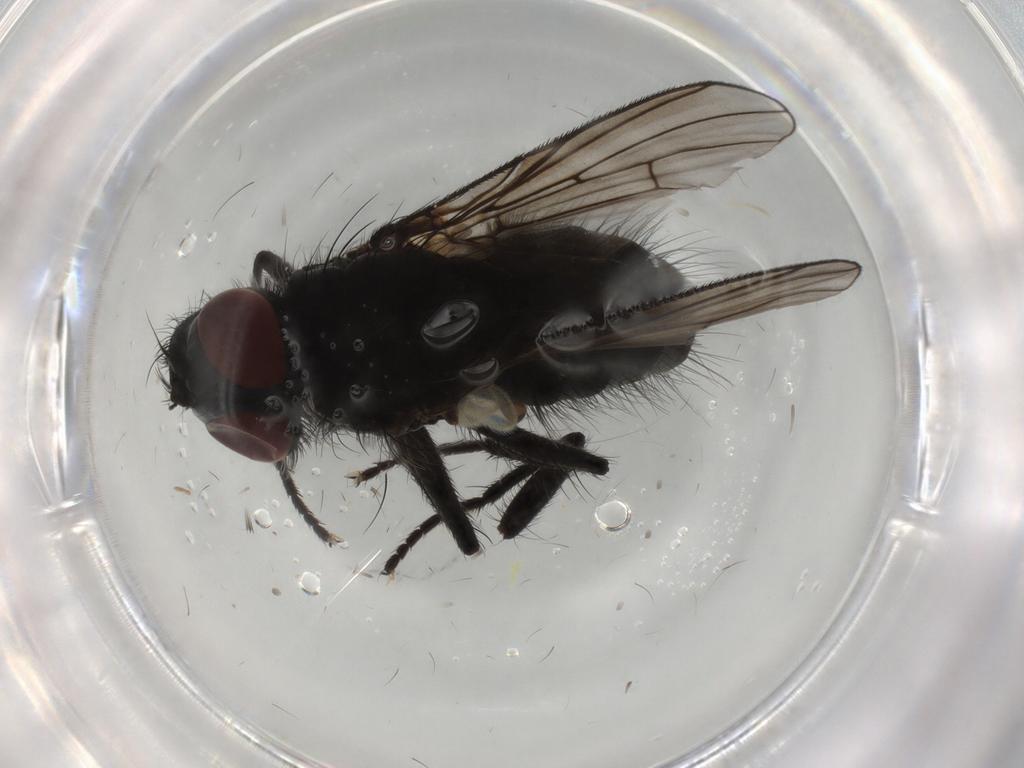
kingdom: Animalia
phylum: Arthropoda
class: Insecta
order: Diptera
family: Muscidae
